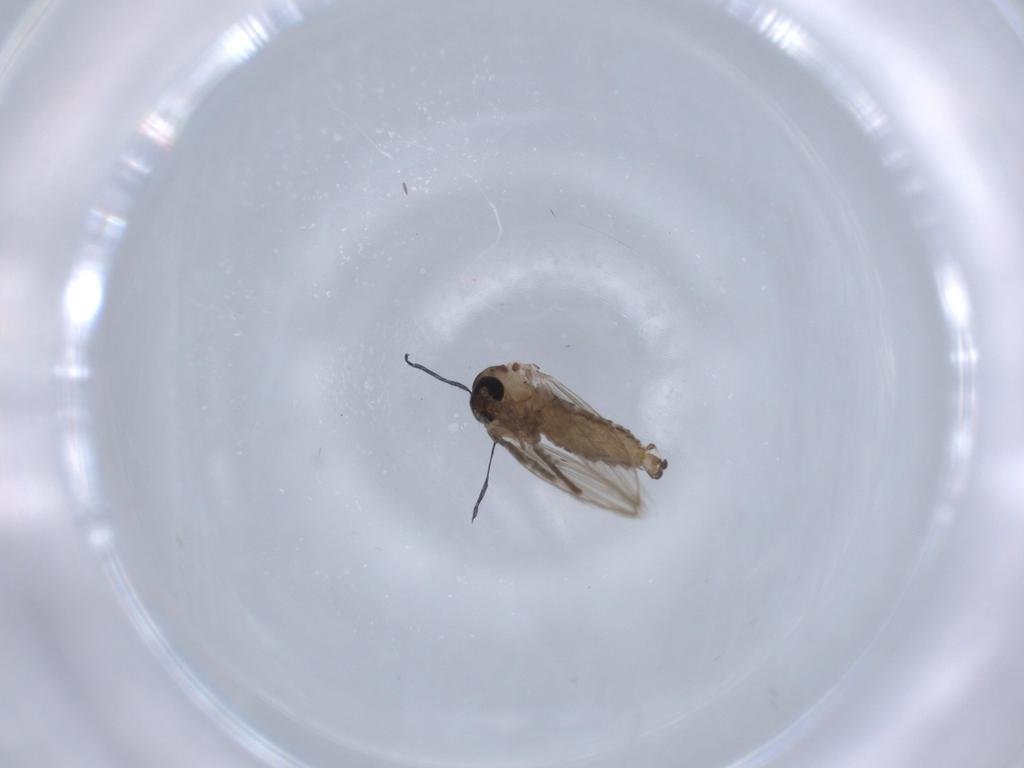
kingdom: Animalia
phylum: Arthropoda
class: Insecta
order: Diptera
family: Psychodidae
